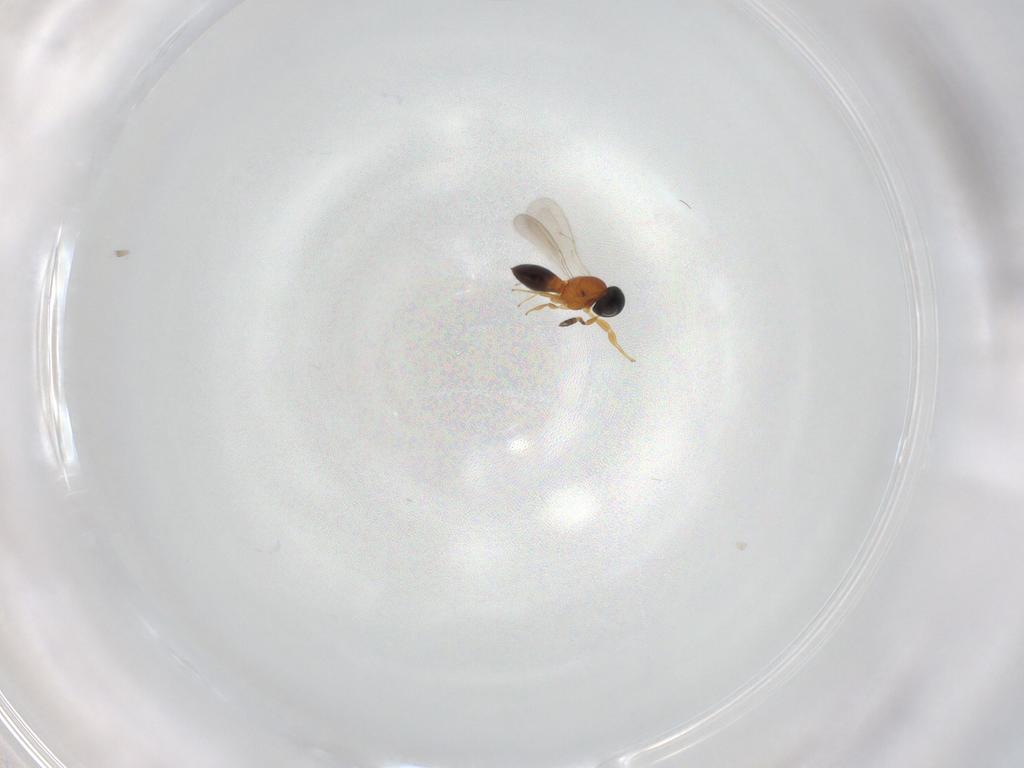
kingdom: Animalia
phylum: Arthropoda
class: Insecta
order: Hymenoptera
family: Scelionidae
